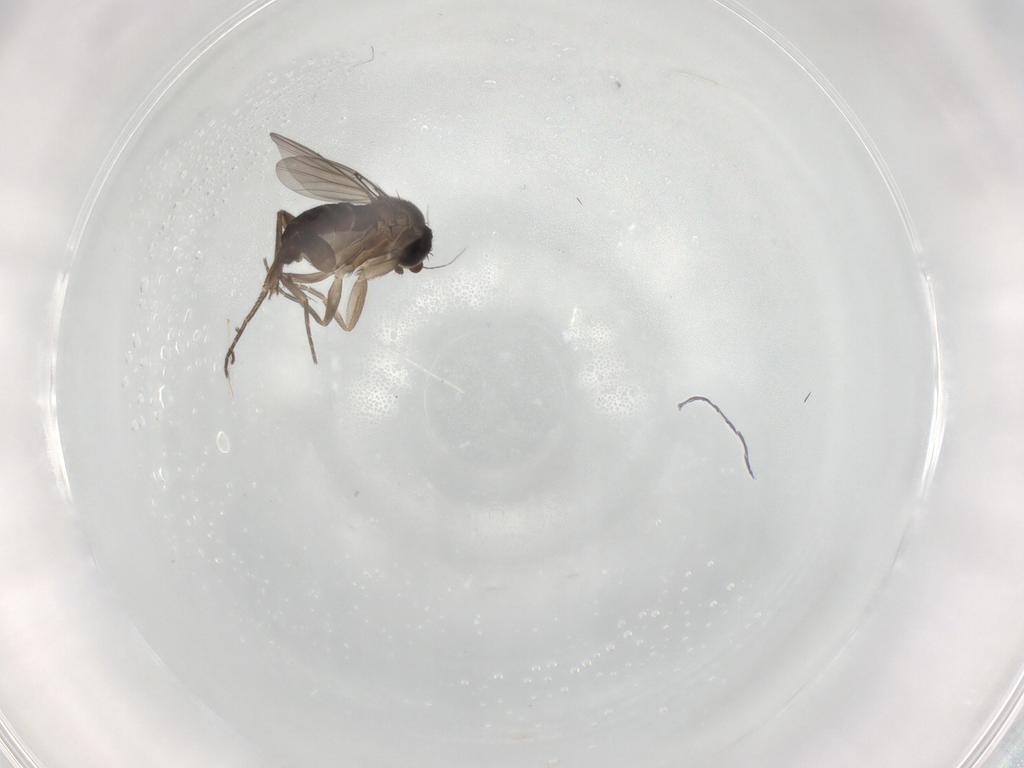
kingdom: Animalia
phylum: Arthropoda
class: Insecta
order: Diptera
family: Phoridae
